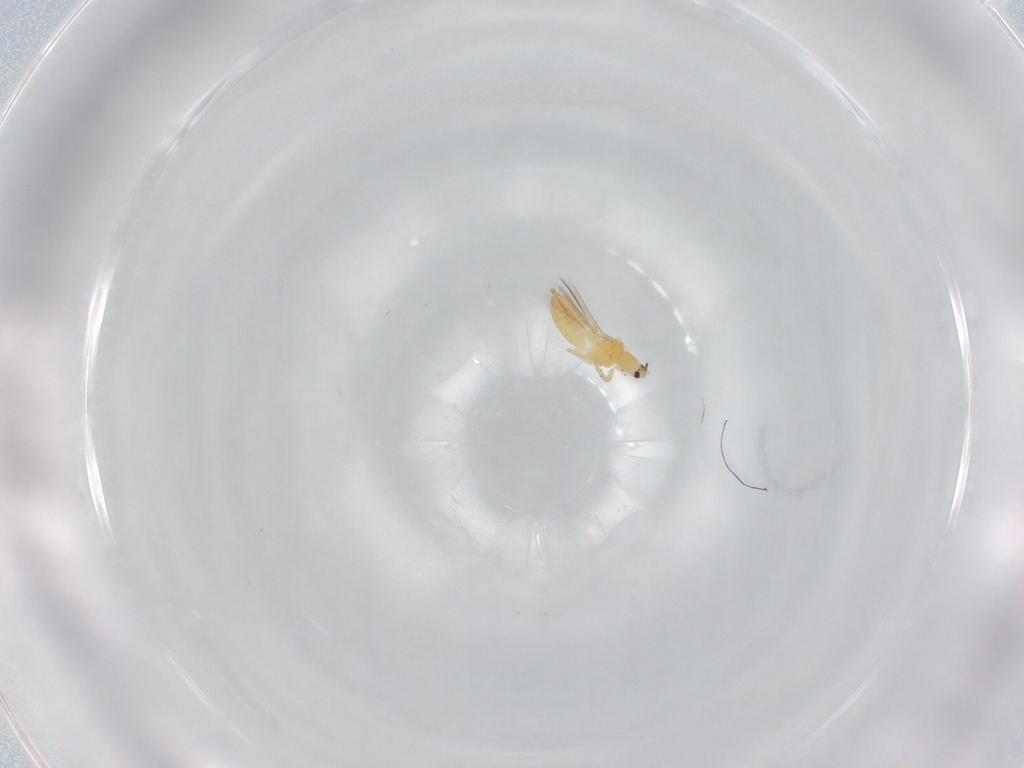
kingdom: Animalia
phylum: Arthropoda
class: Insecta
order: Thysanoptera
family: Thripidae
